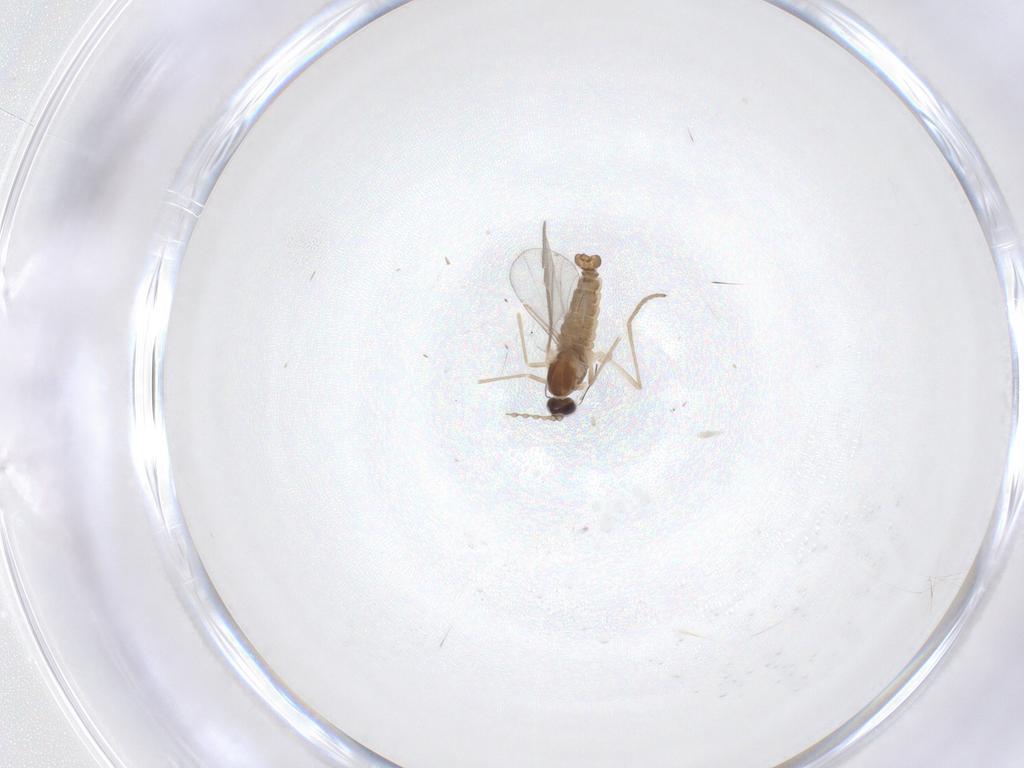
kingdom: Animalia
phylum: Arthropoda
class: Insecta
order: Diptera
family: Cecidomyiidae
